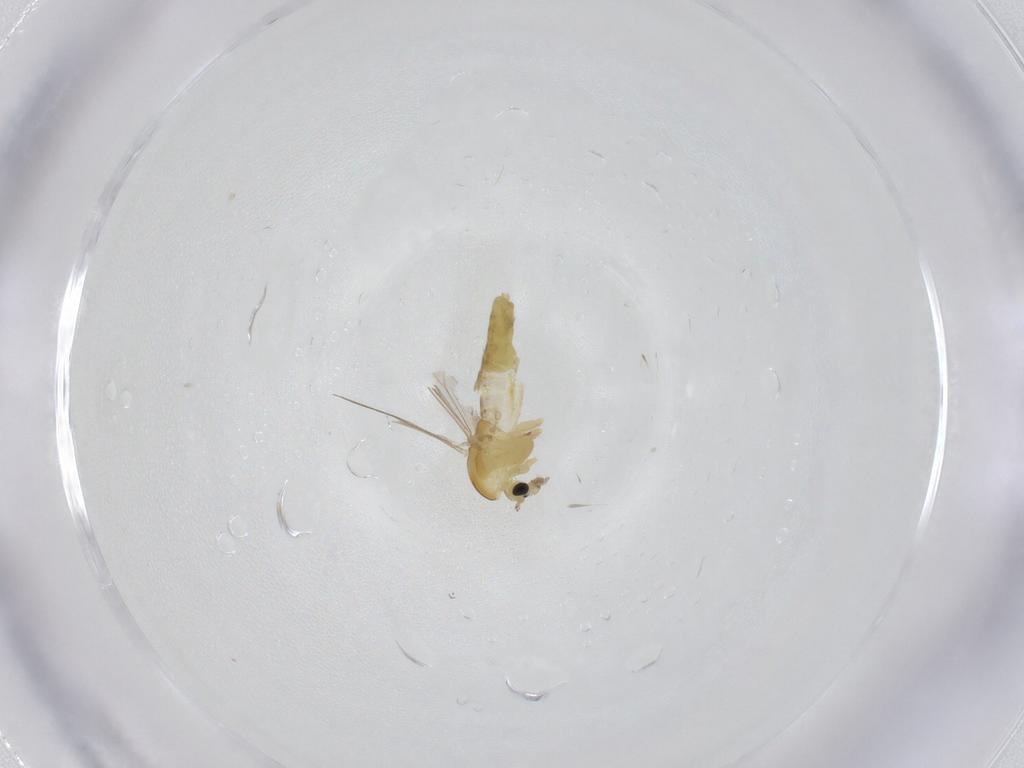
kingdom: Animalia
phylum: Arthropoda
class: Insecta
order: Diptera
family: Chironomidae
